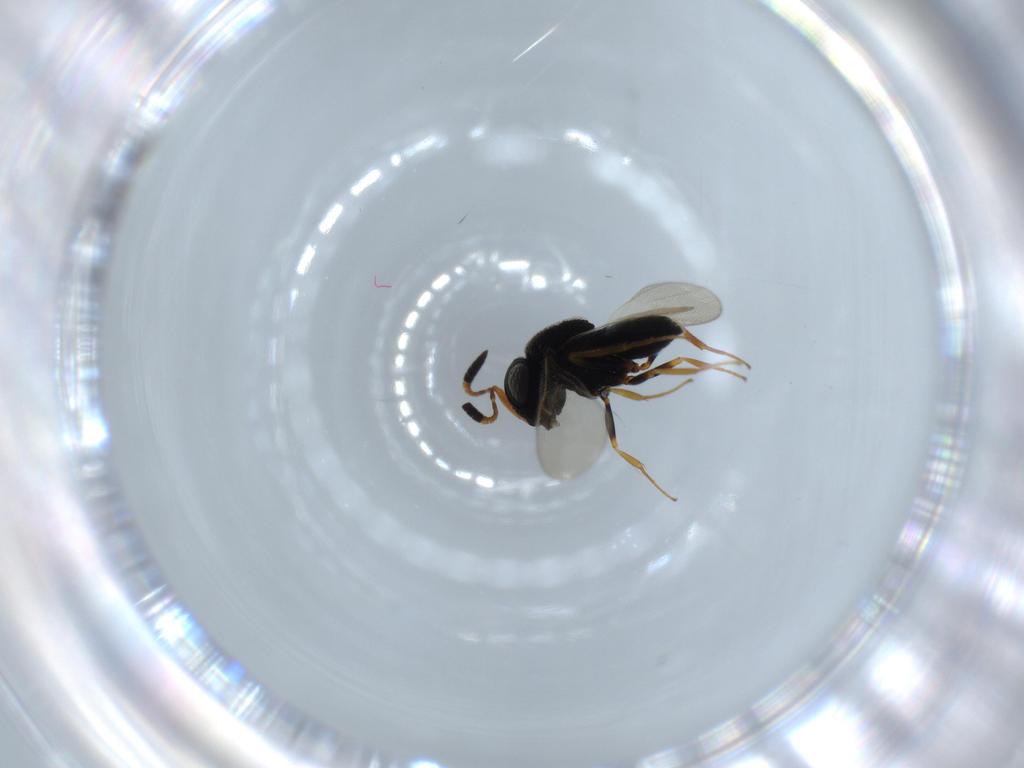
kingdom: Animalia
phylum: Arthropoda
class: Insecta
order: Hymenoptera
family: Scelionidae
